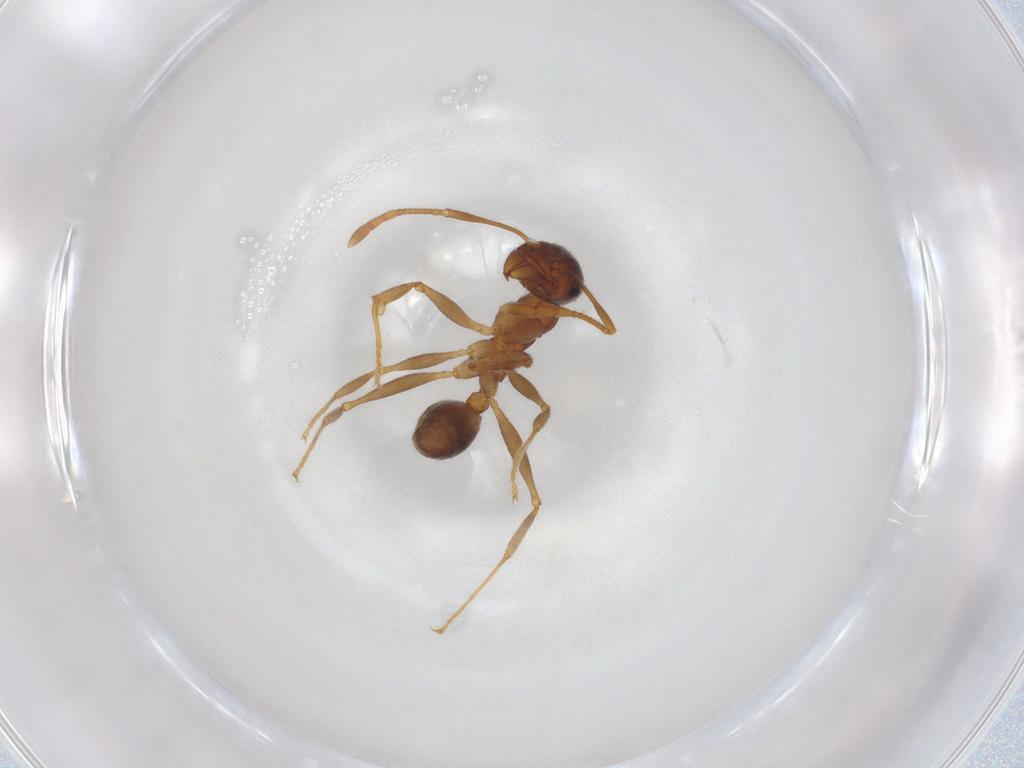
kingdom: Animalia
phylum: Arthropoda
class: Insecta
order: Hymenoptera
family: Formicidae
